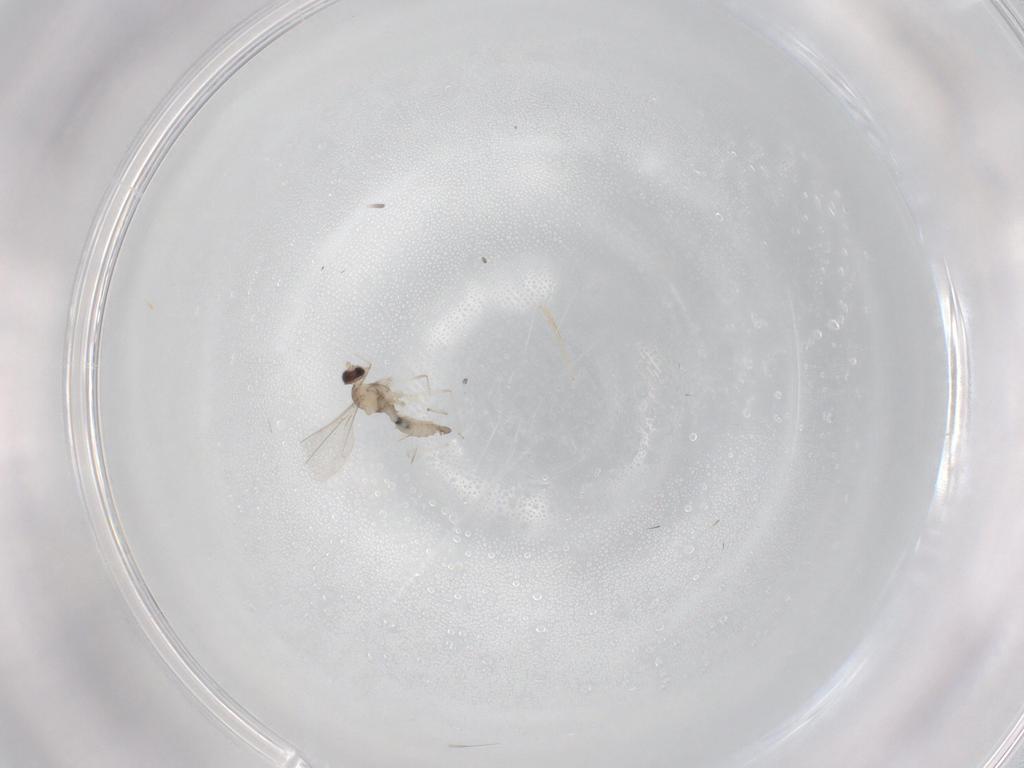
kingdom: Animalia
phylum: Arthropoda
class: Insecta
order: Diptera
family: Cecidomyiidae
